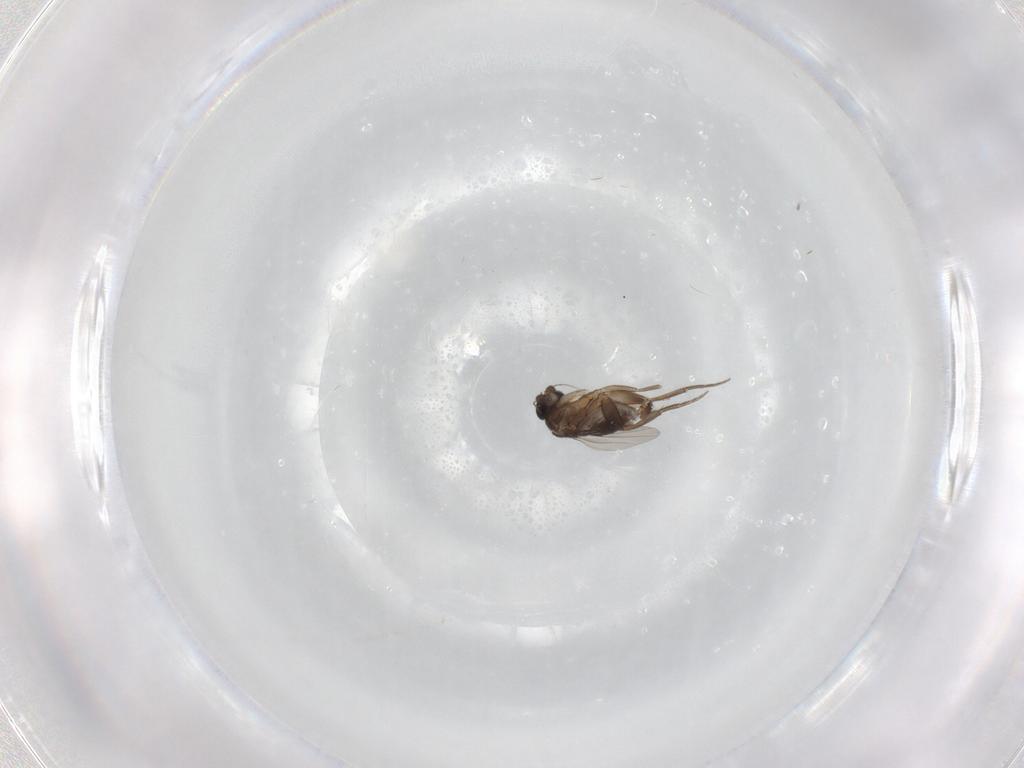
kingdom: Animalia
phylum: Arthropoda
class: Insecta
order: Diptera
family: Phoridae
